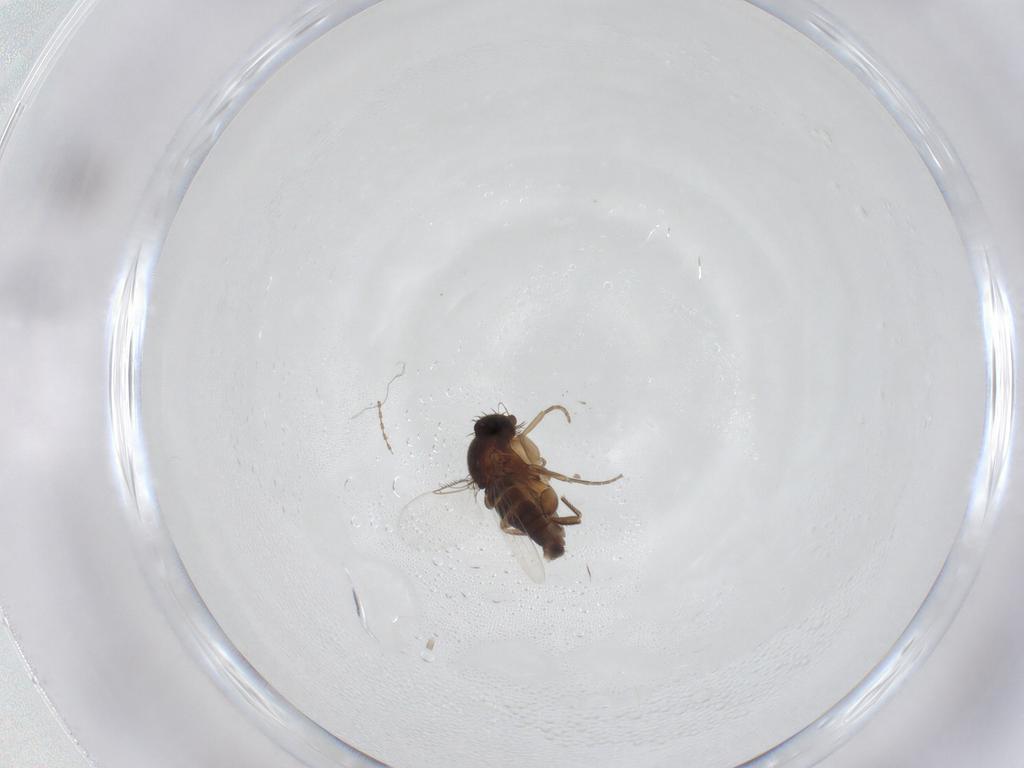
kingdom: Animalia
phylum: Arthropoda
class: Insecta
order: Diptera
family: Phoridae
